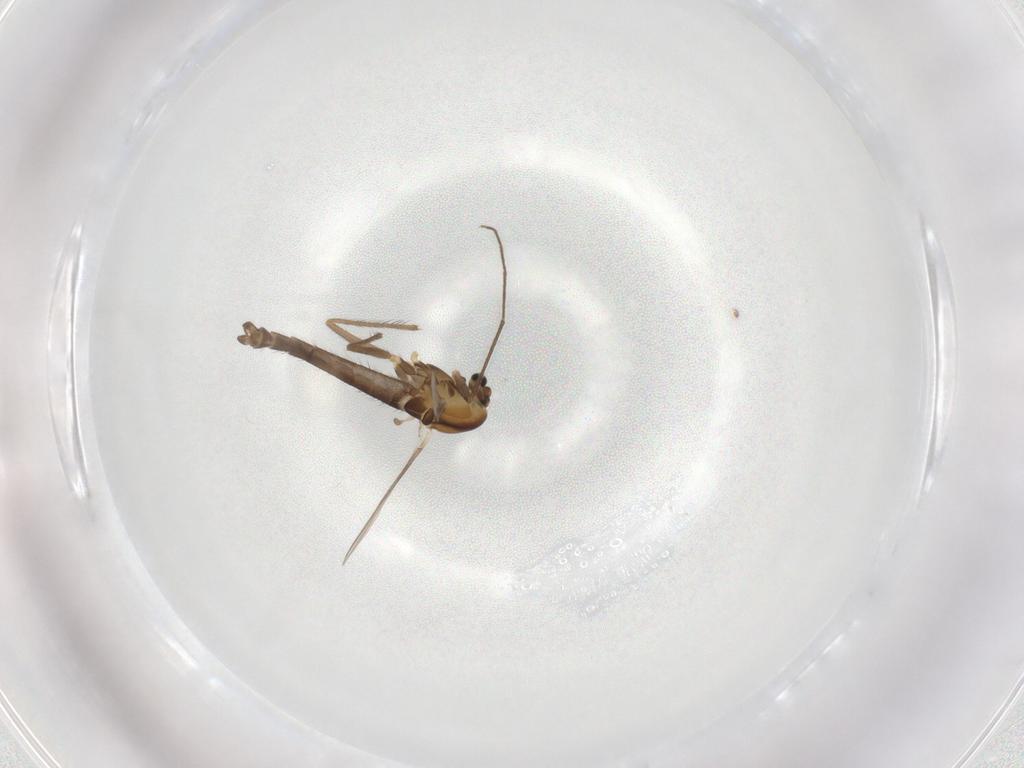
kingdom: Animalia
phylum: Arthropoda
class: Insecta
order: Diptera
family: Chironomidae
